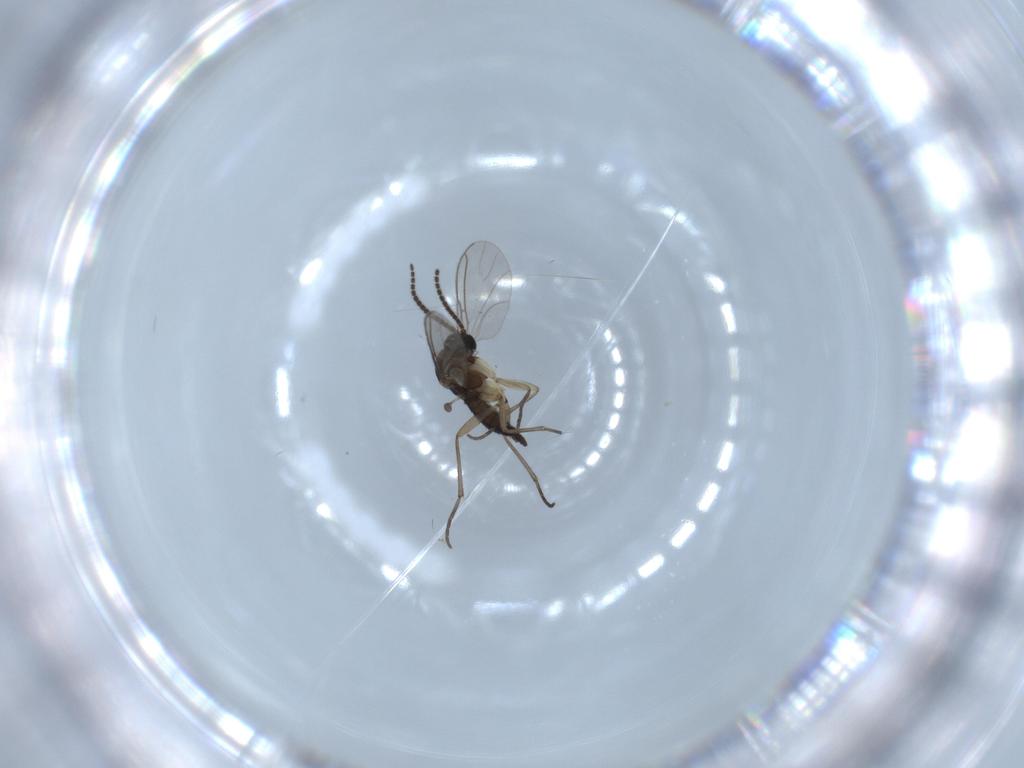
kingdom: Animalia
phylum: Arthropoda
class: Insecta
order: Diptera
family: Sciaridae
